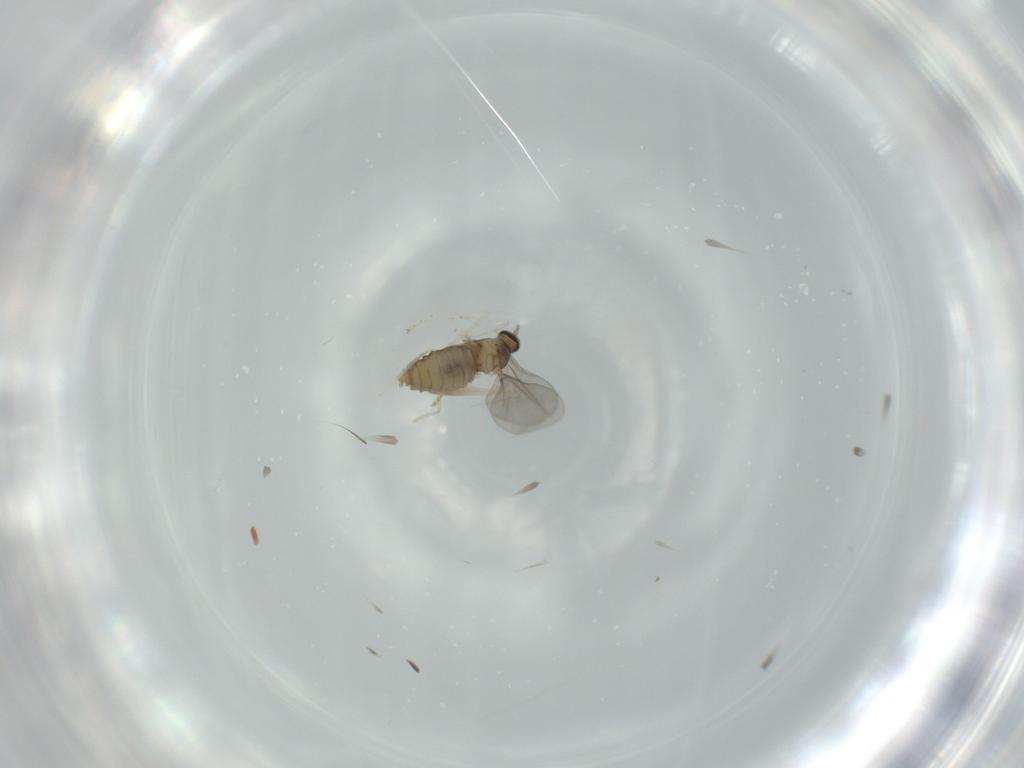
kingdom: Animalia
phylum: Arthropoda
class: Insecta
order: Diptera
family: Cecidomyiidae
